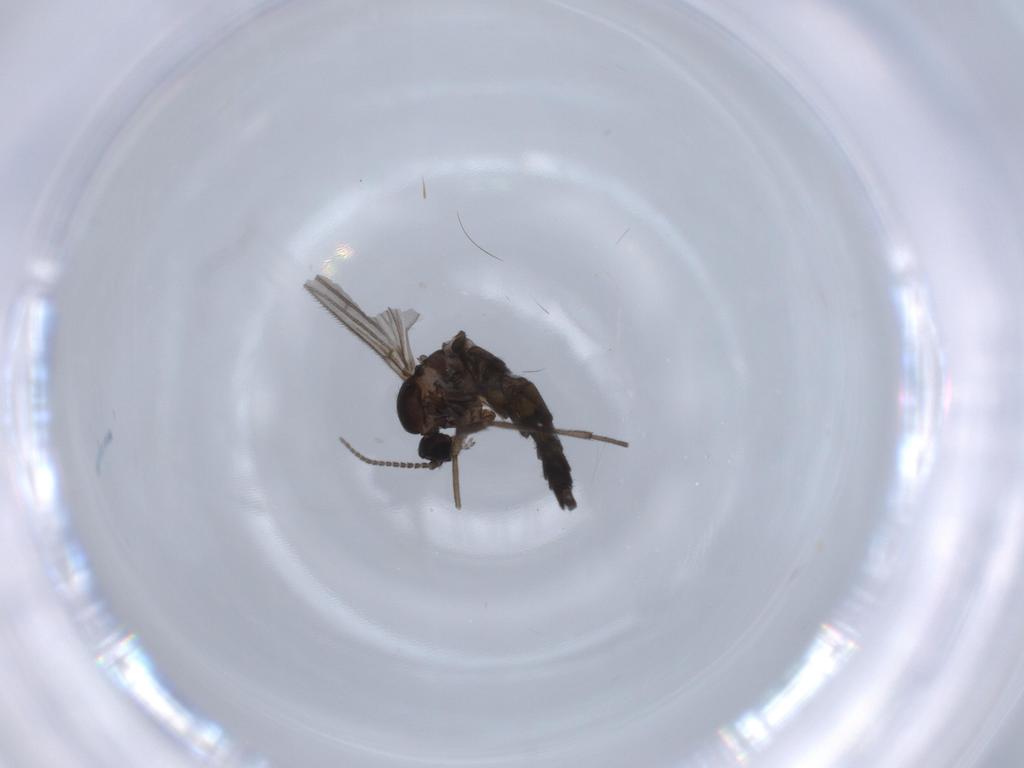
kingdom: Animalia
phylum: Arthropoda
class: Insecta
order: Diptera
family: Sciaridae
